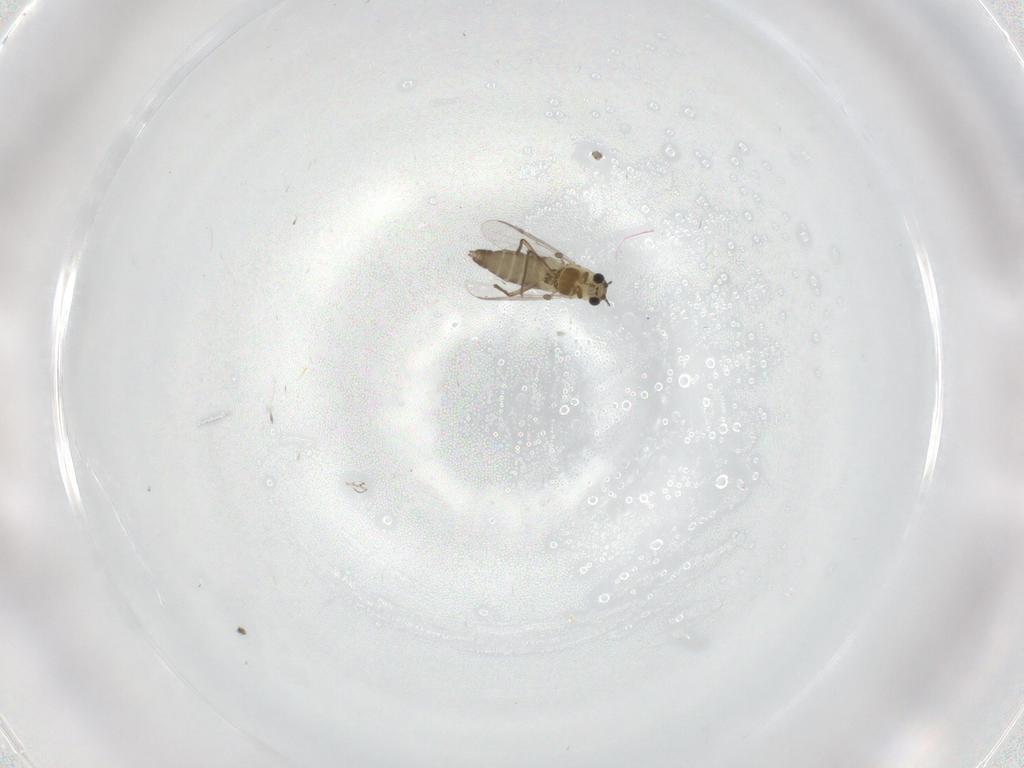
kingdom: Animalia
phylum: Arthropoda
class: Insecta
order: Diptera
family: Chironomidae
